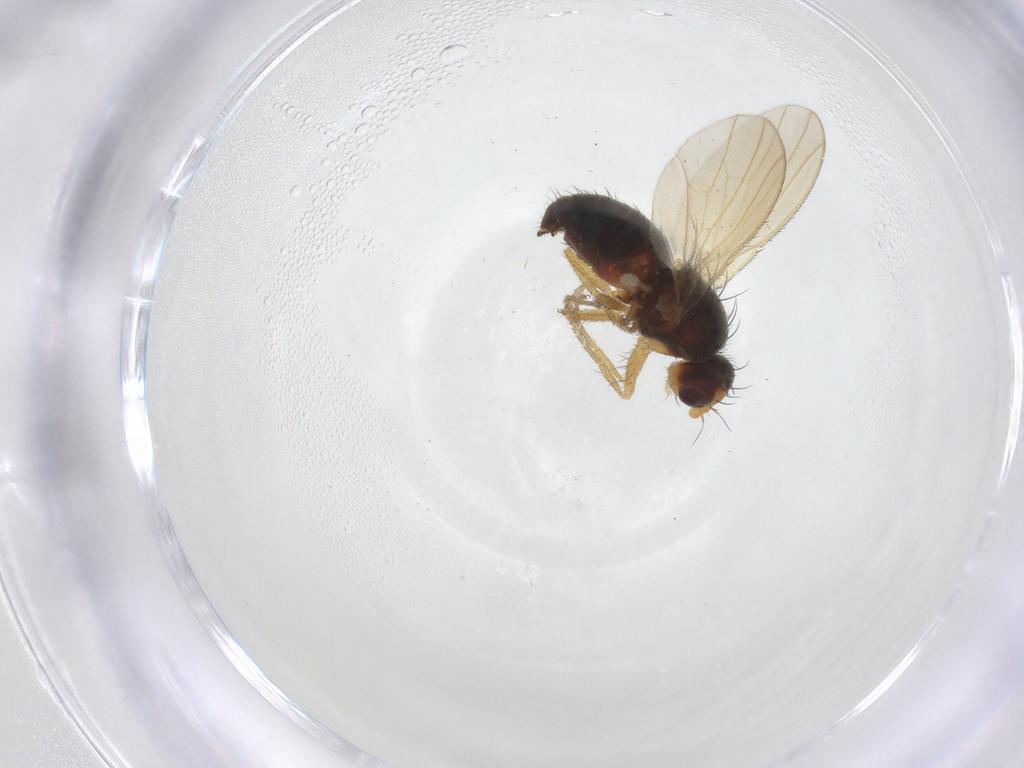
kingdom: Animalia
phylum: Arthropoda
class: Insecta
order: Diptera
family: Heleomyzidae
